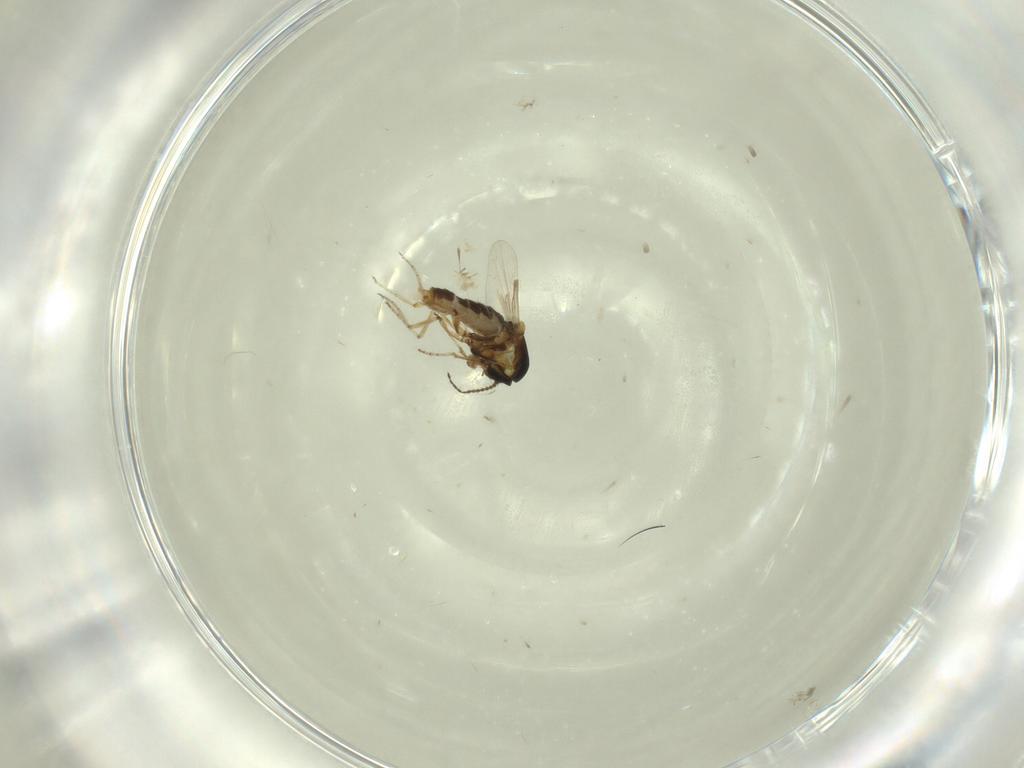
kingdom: Animalia
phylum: Arthropoda
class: Insecta
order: Diptera
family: Ceratopogonidae
